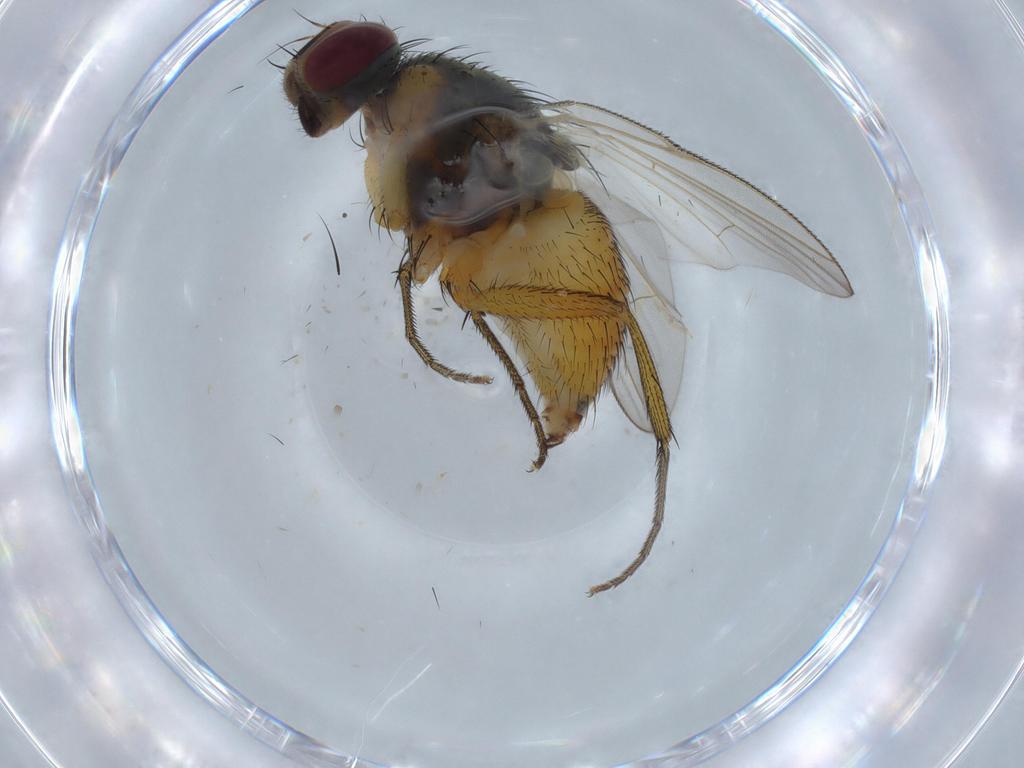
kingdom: Animalia
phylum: Arthropoda
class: Insecta
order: Diptera
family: Muscidae
